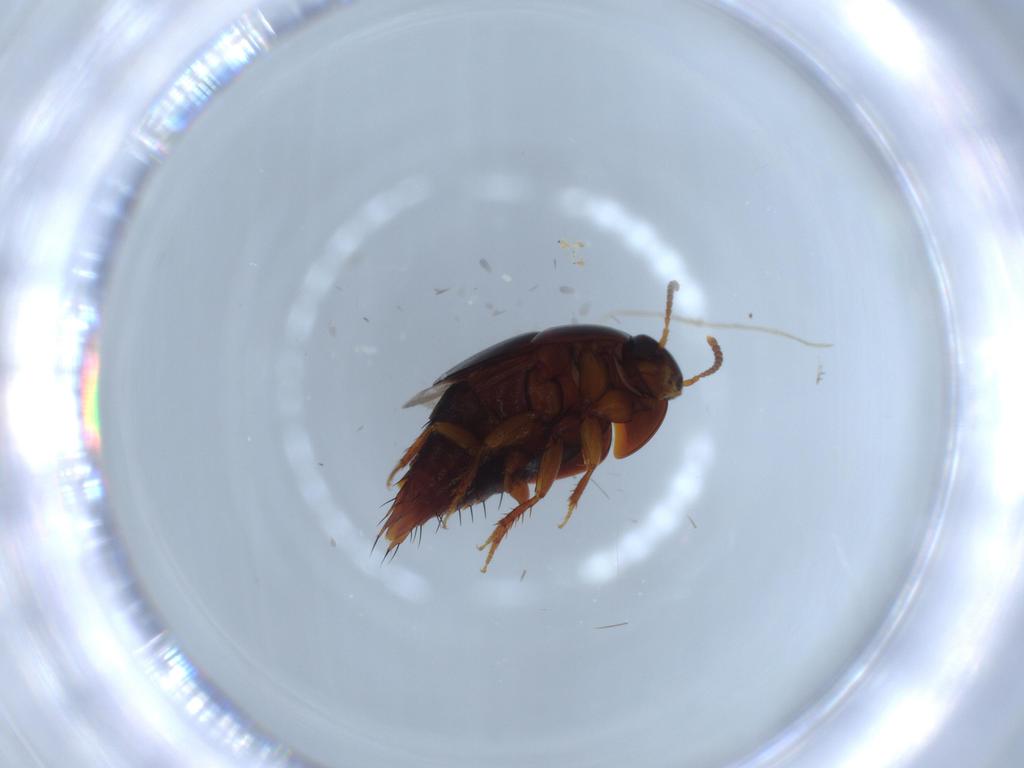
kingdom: Animalia
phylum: Arthropoda
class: Insecta
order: Coleoptera
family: Staphylinidae
